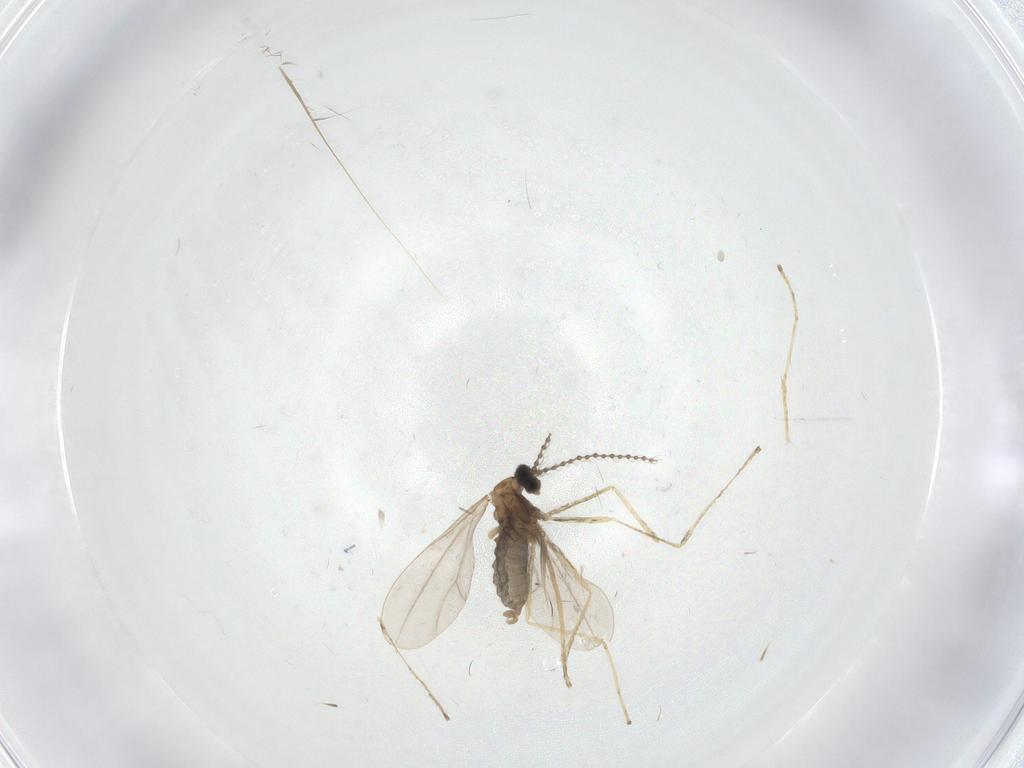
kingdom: Animalia
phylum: Arthropoda
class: Insecta
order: Diptera
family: Cecidomyiidae
